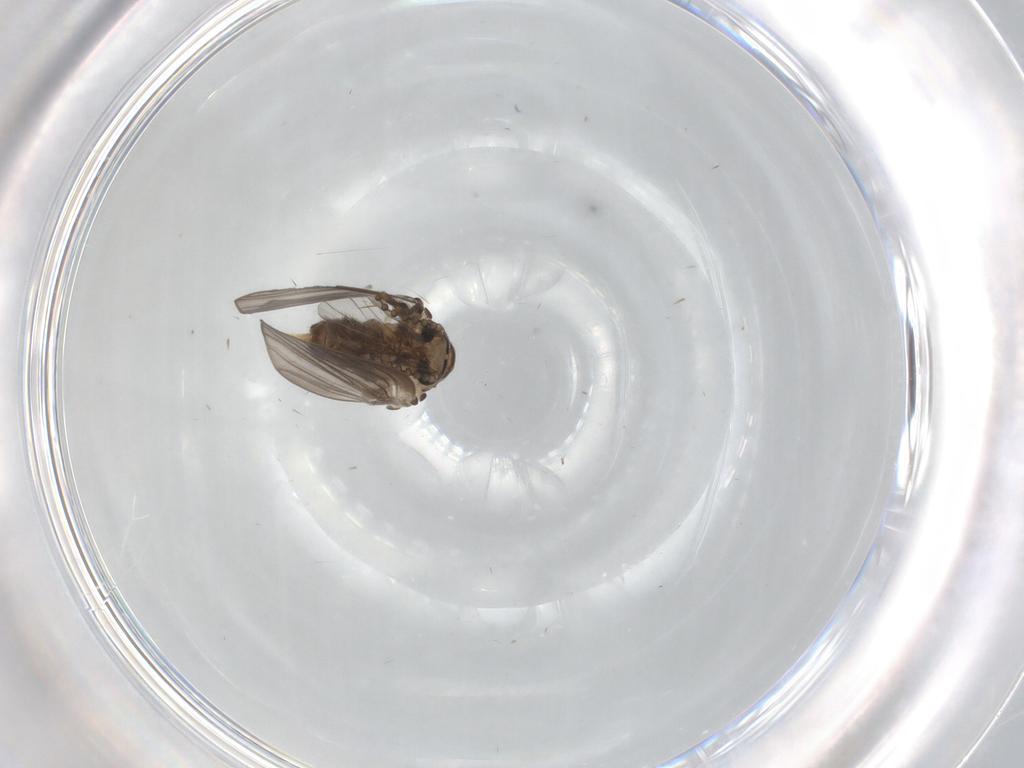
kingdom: Animalia
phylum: Arthropoda
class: Insecta
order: Diptera
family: Psychodidae
